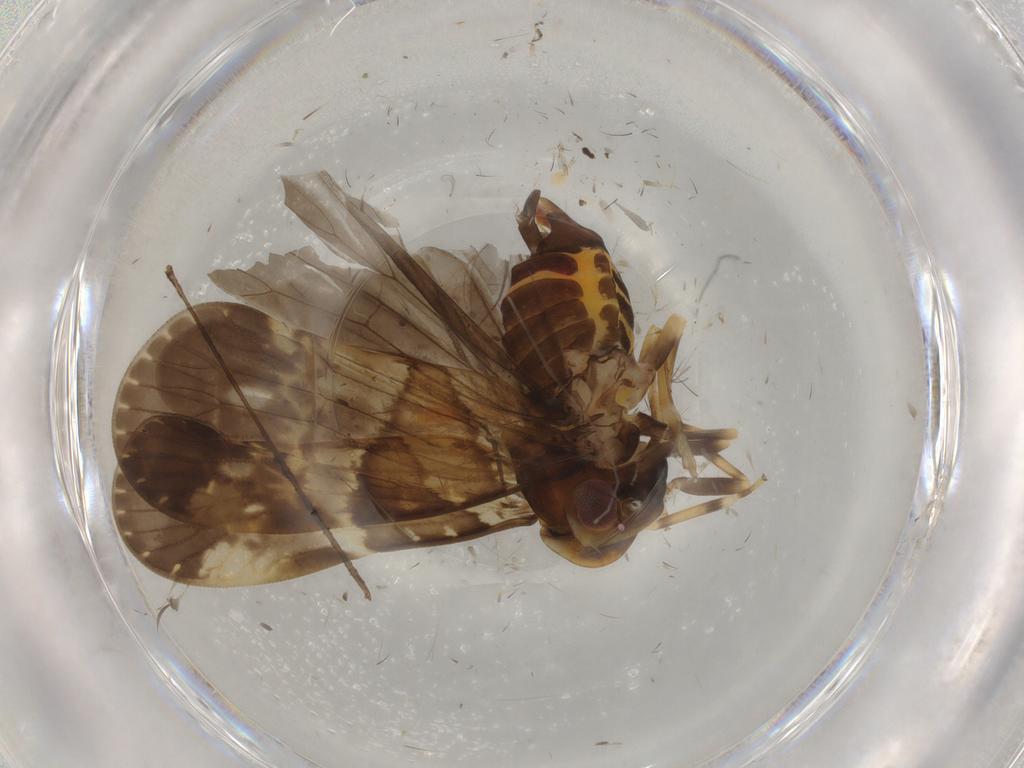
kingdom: Animalia
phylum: Arthropoda
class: Insecta
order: Hemiptera
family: Cixiidae
